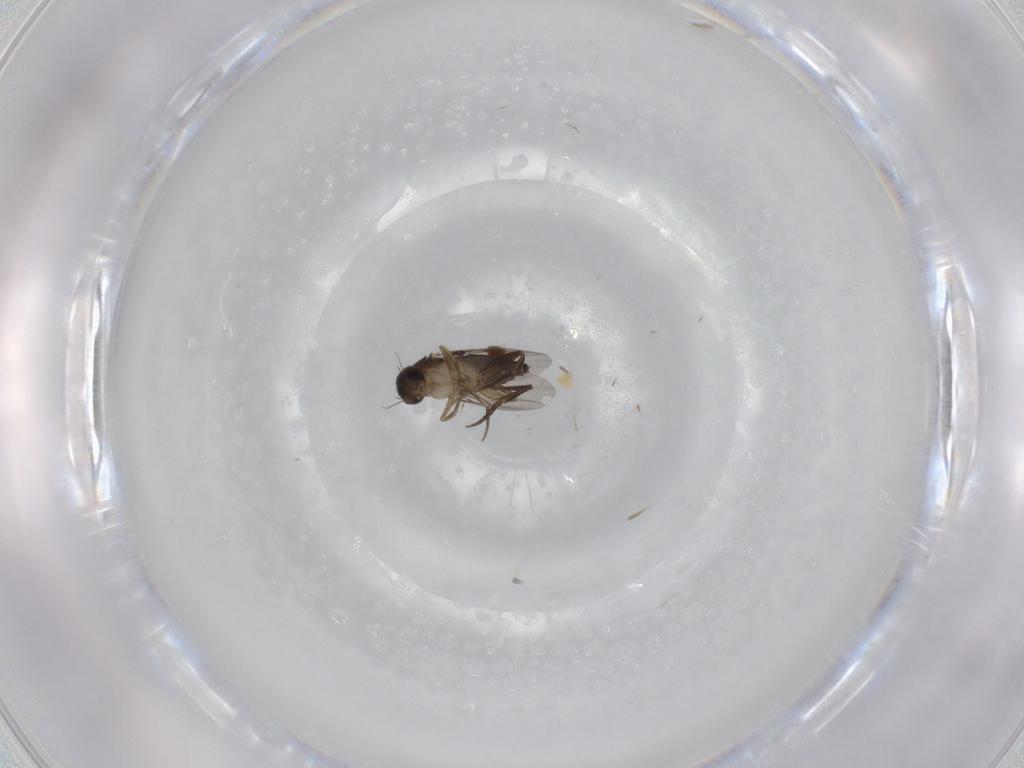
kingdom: Animalia
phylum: Arthropoda
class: Insecta
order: Diptera
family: Phoridae
